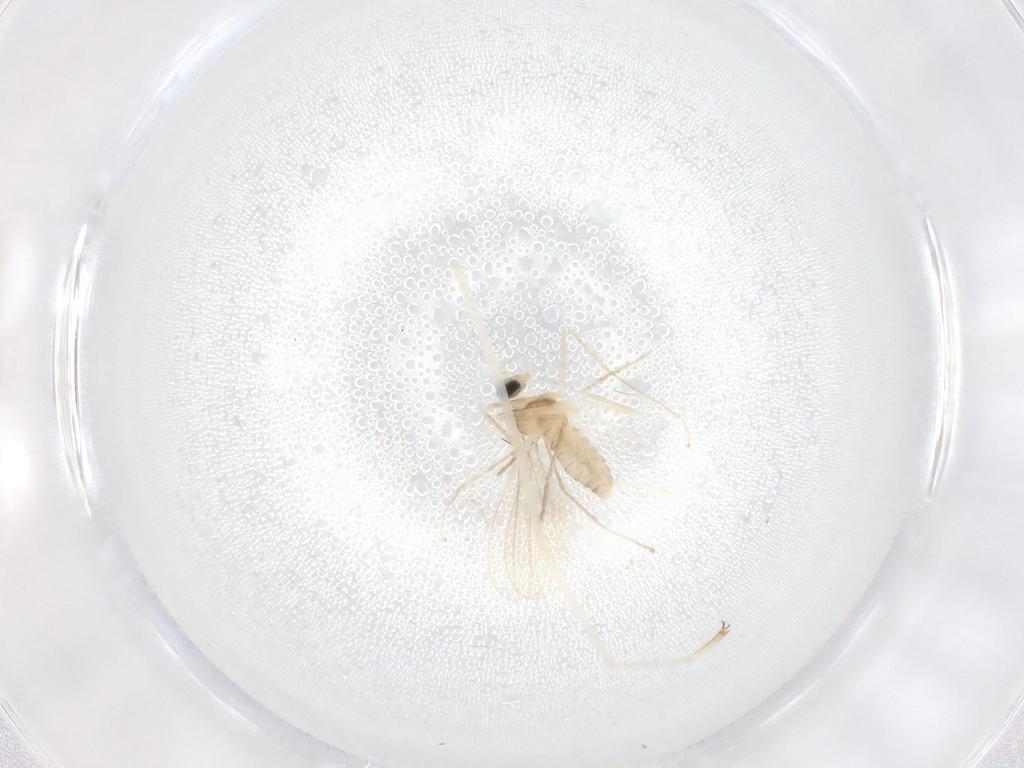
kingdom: Animalia
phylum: Arthropoda
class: Insecta
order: Diptera
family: Cecidomyiidae
